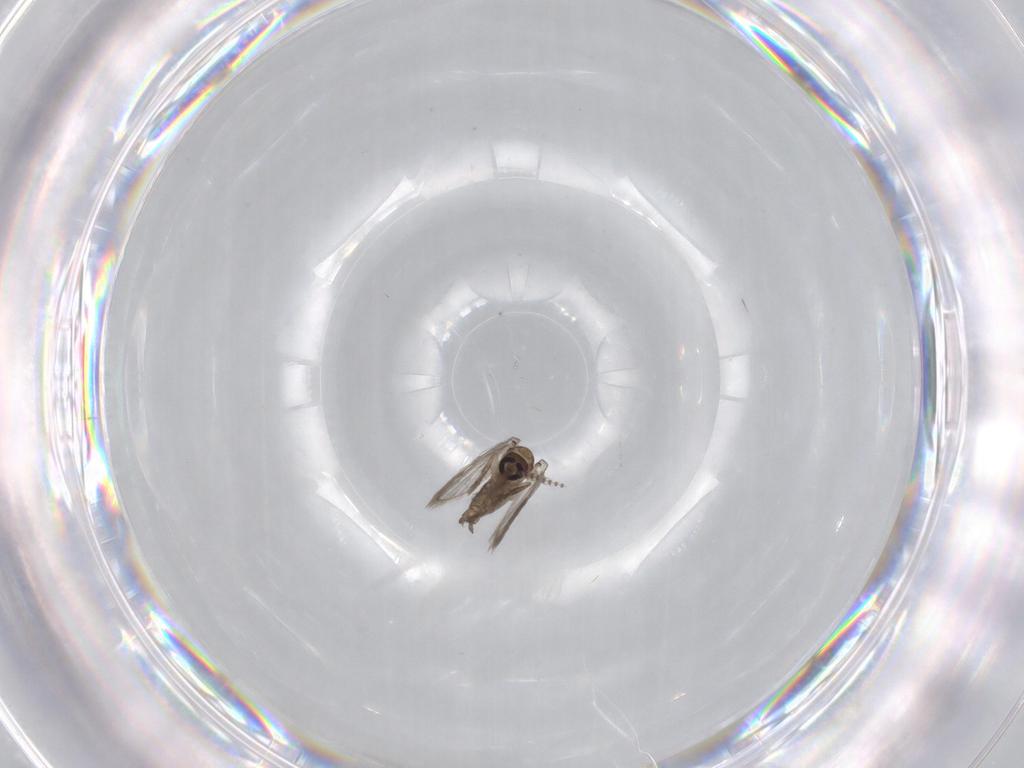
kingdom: Animalia
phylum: Arthropoda
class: Insecta
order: Diptera
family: Psychodidae
